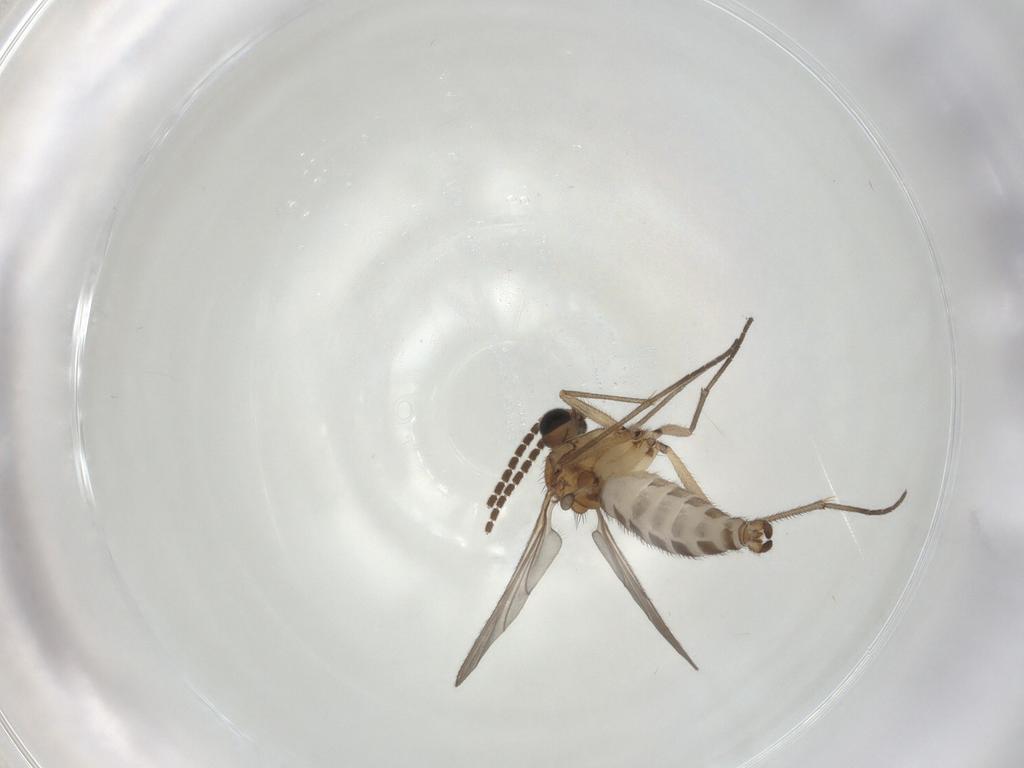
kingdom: Animalia
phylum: Arthropoda
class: Insecta
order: Diptera
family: Sciaridae
